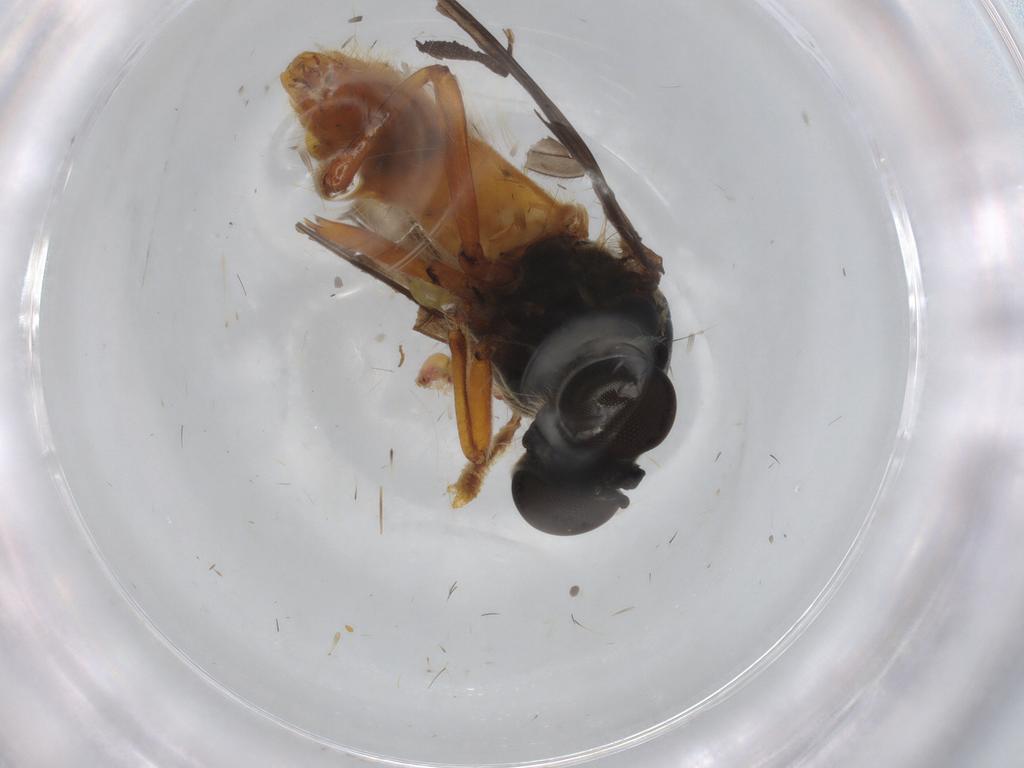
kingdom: Animalia
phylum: Arthropoda
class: Insecta
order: Diptera
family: Asilidae
